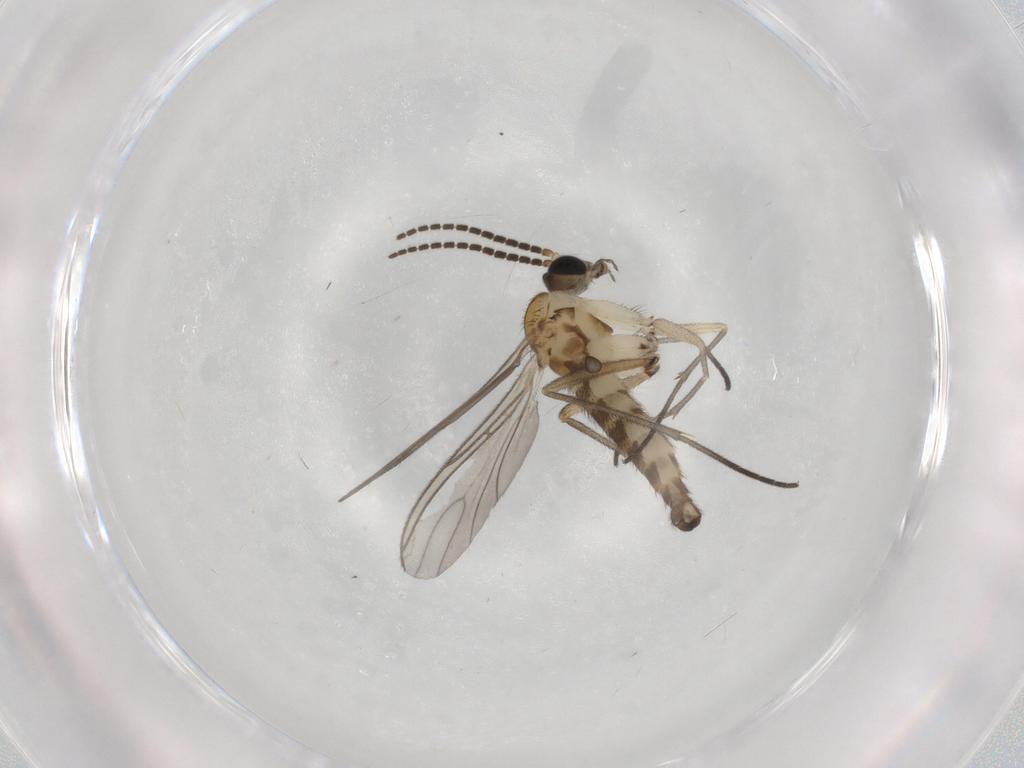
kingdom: Animalia
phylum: Arthropoda
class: Insecta
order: Diptera
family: Sciaridae
